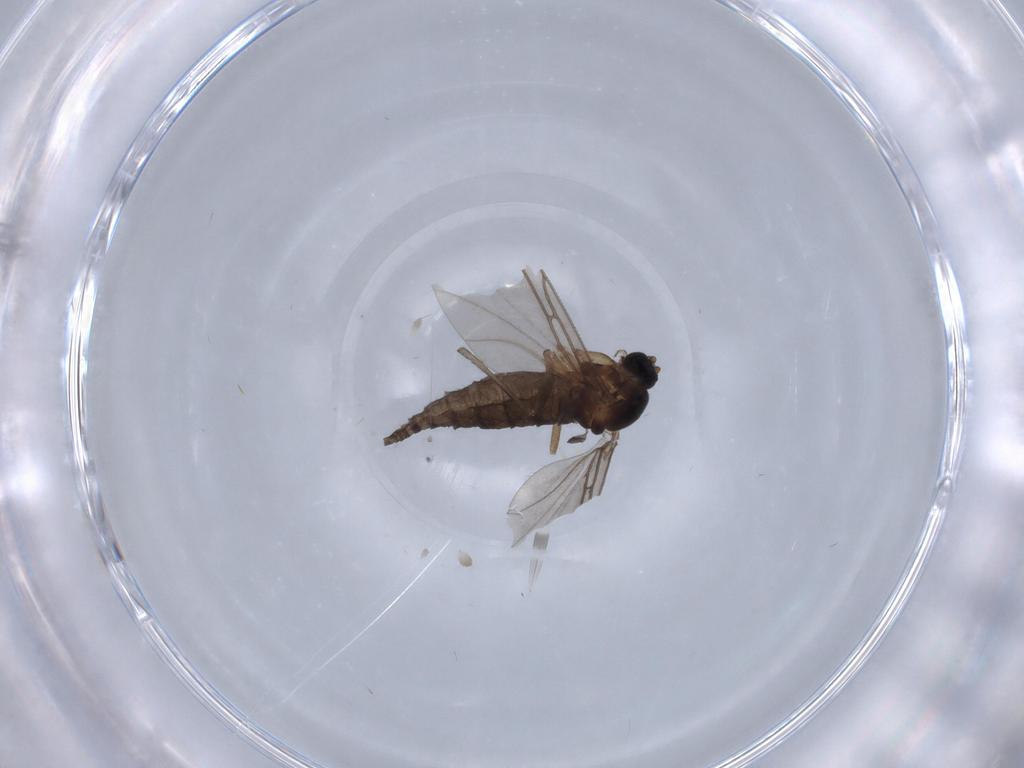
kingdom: Animalia
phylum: Arthropoda
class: Insecta
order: Diptera
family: Sciaridae
